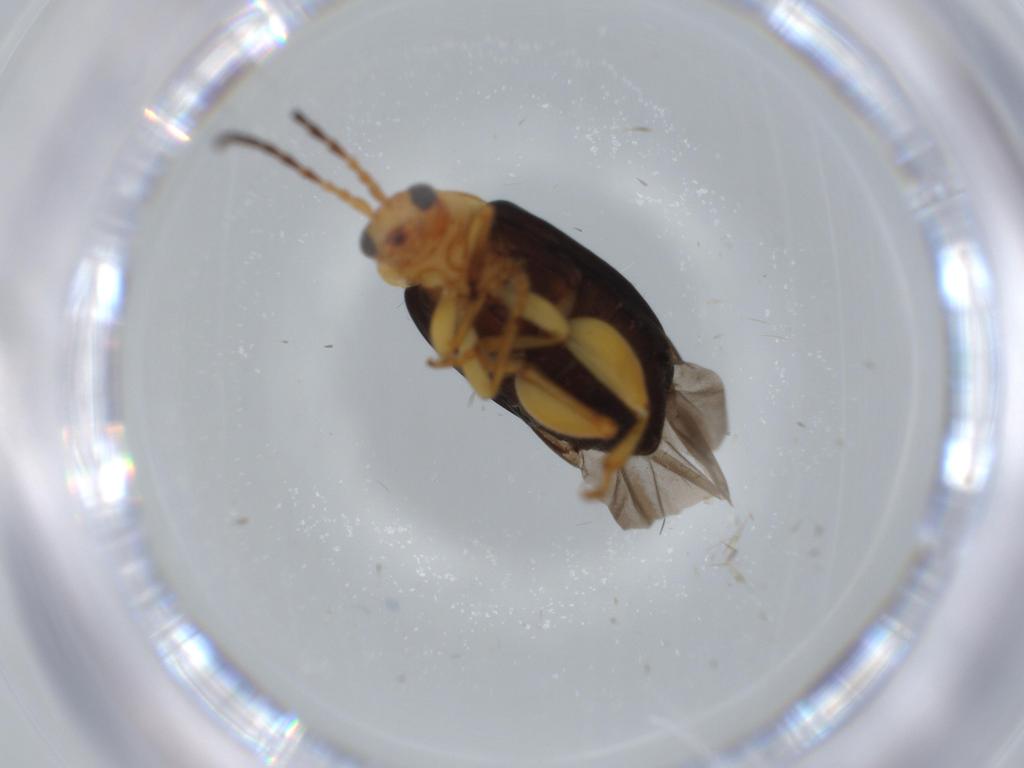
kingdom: Animalia
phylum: Arthropoda
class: Insecta
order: Coleoptera
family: Chrysomelidae
